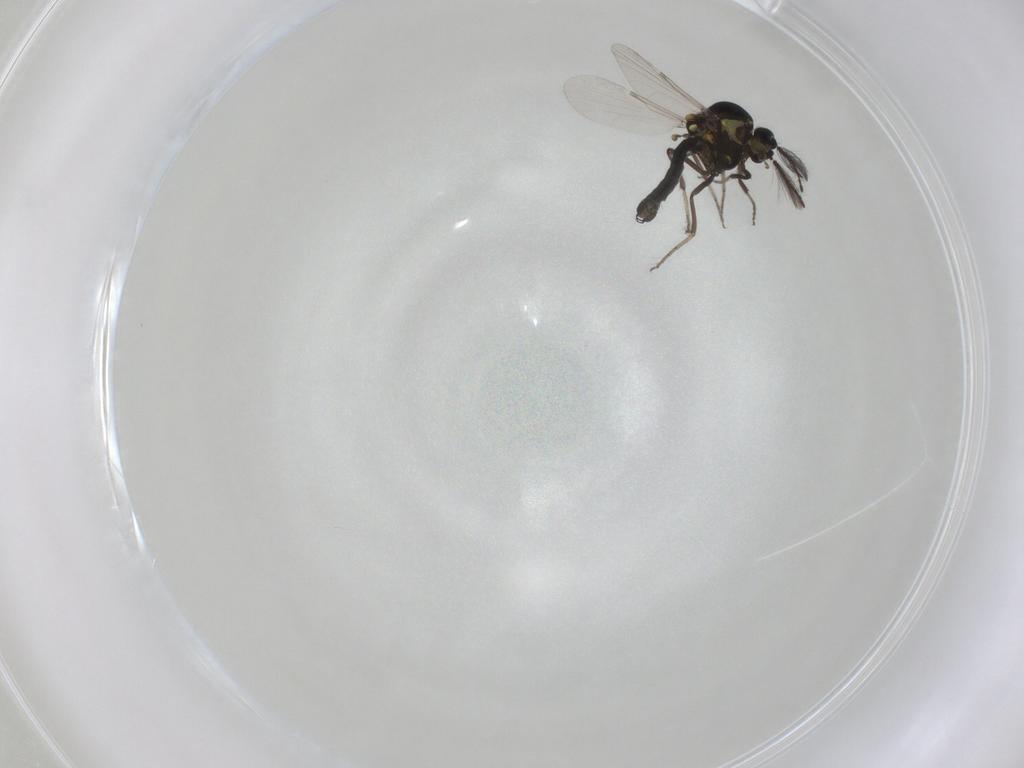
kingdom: Animalia
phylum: Arthropoda
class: Insecta
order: Diptera
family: Ceratopogonidae
